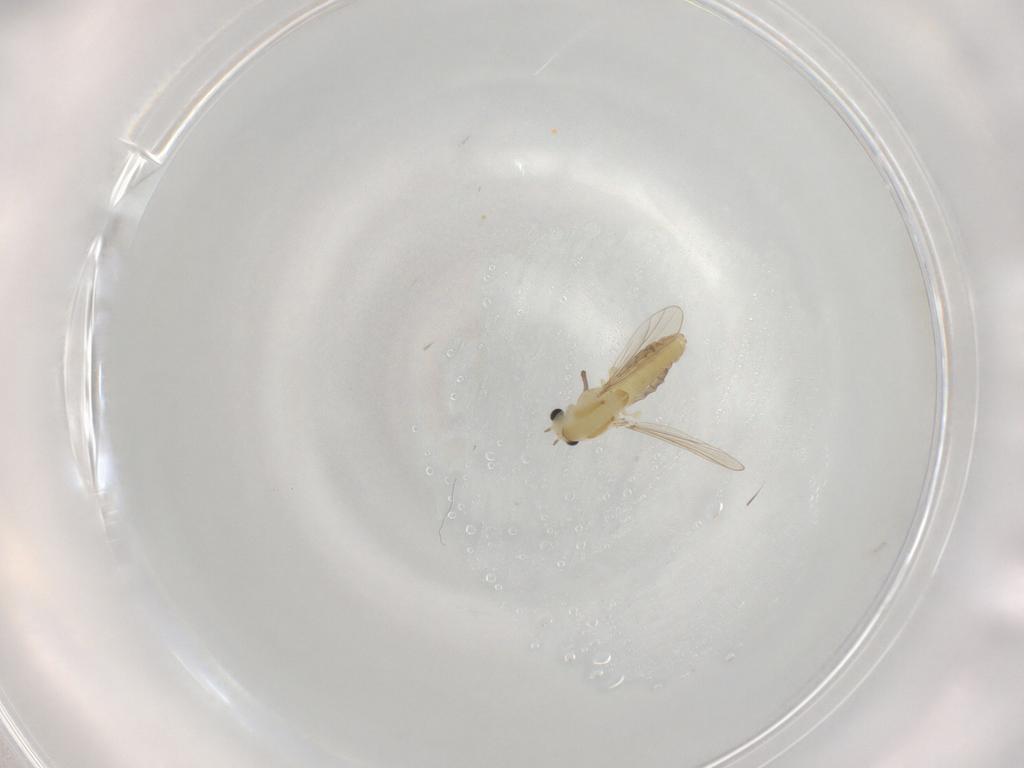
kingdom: Animalia
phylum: Arthropoda
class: Insecta
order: Diptera
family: Chironomidae
